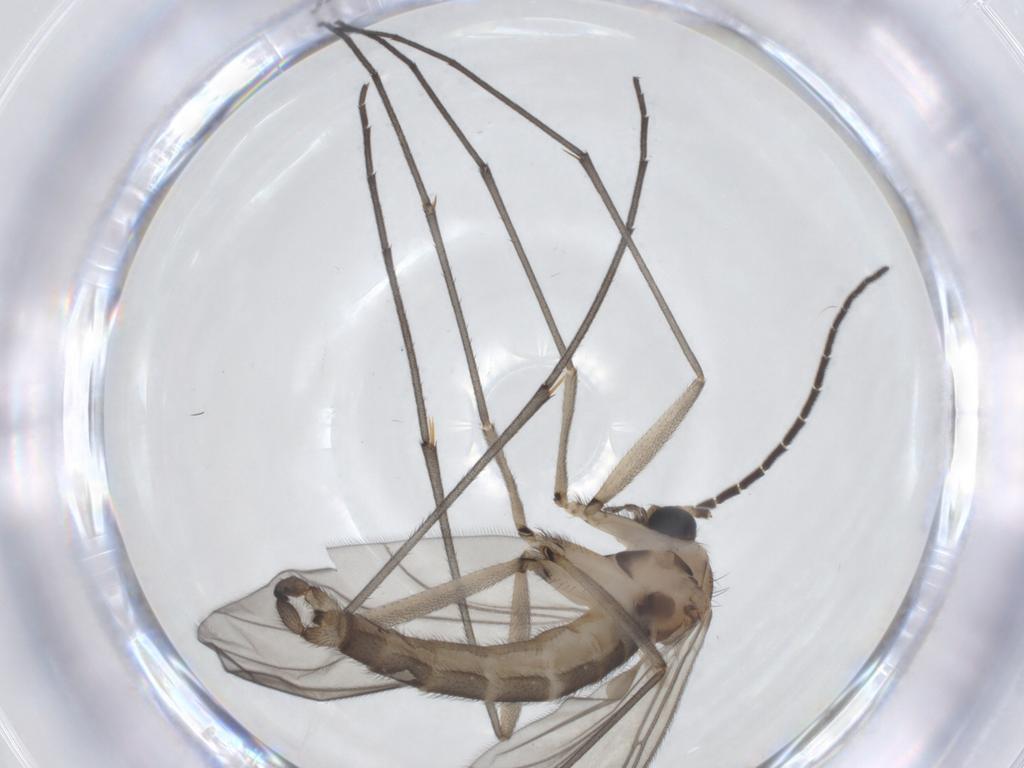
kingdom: Animalia
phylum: Arthropoda
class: Insecta
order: Diptera
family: Sciaridae
